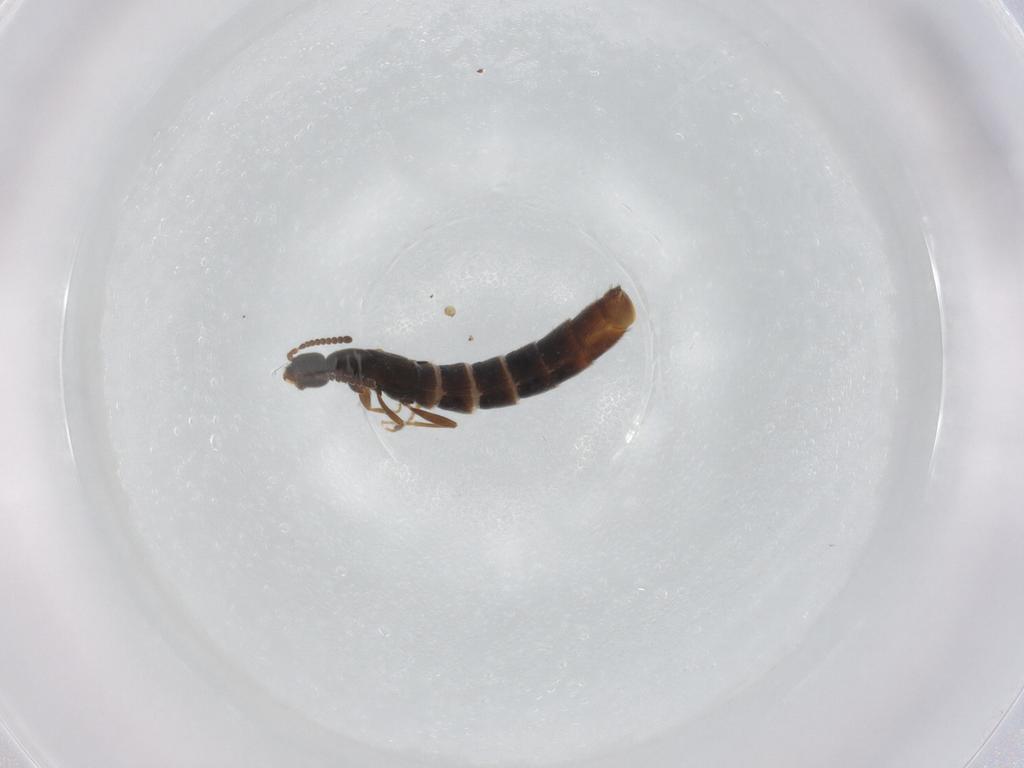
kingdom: Animalia
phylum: Arthropoda
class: Insecta
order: Coleoptera
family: Staphylinidae
